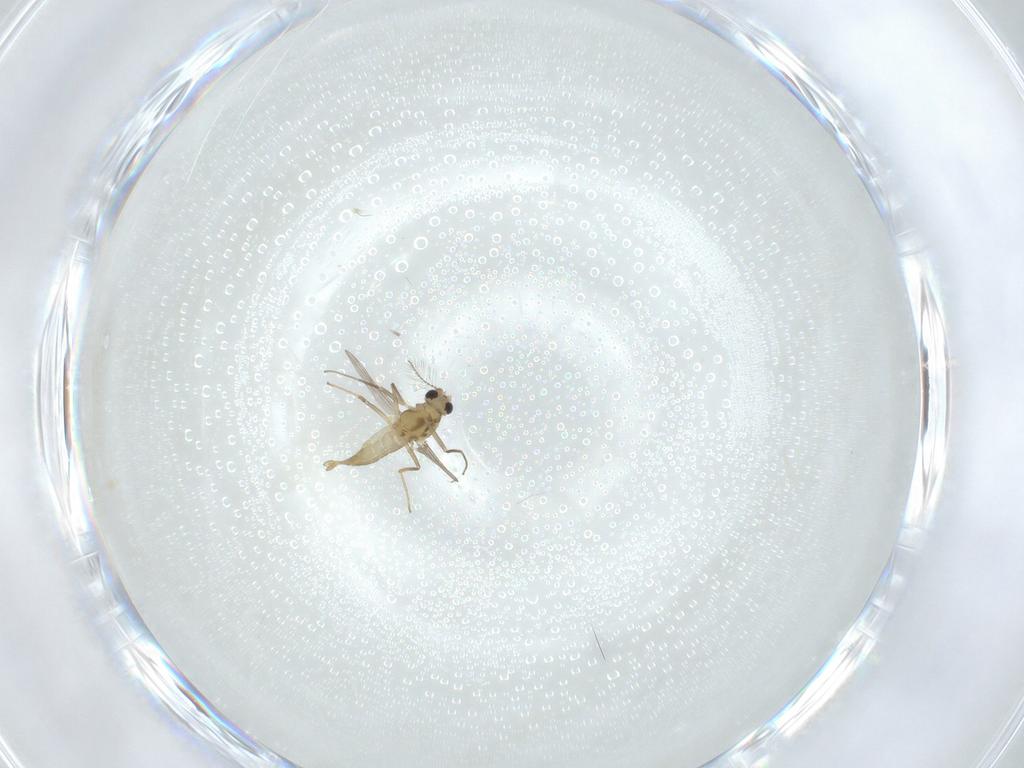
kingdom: Animalia
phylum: Arthropoda
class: Insecta
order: Diptera
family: Chironomidae
